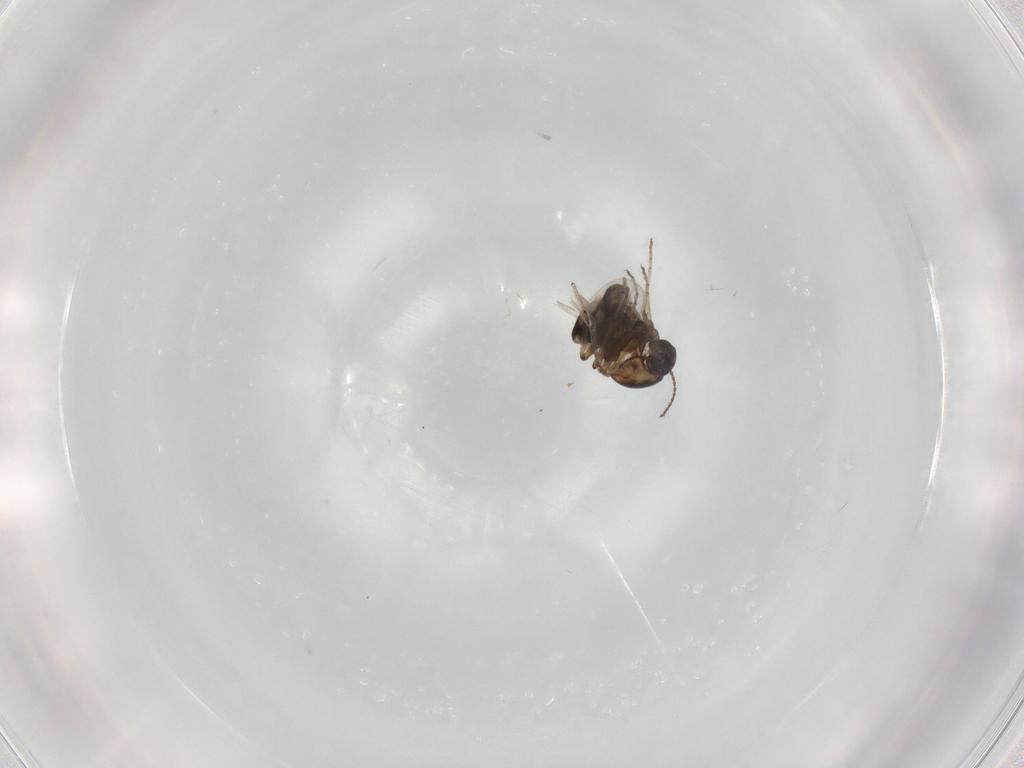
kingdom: Animalia
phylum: Arthropoda
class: Insecta
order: Diptera
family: Ceratopogonidae
